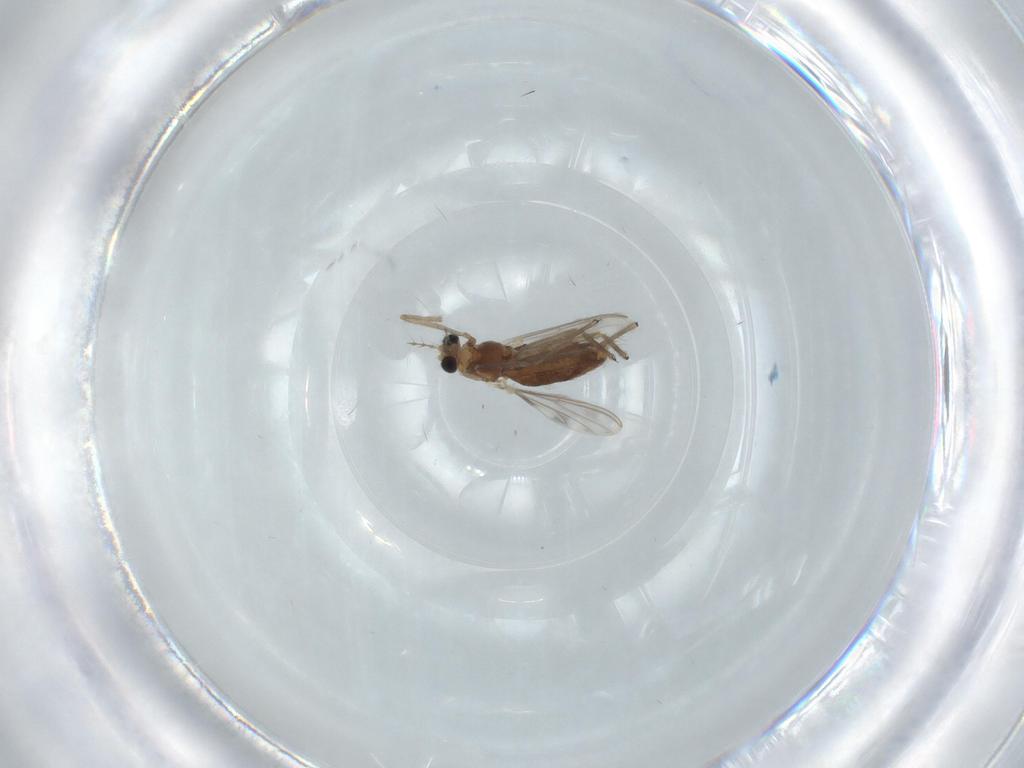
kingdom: Animalia
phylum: Arthropoda
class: Insecta
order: Diptera
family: Chironomidae
